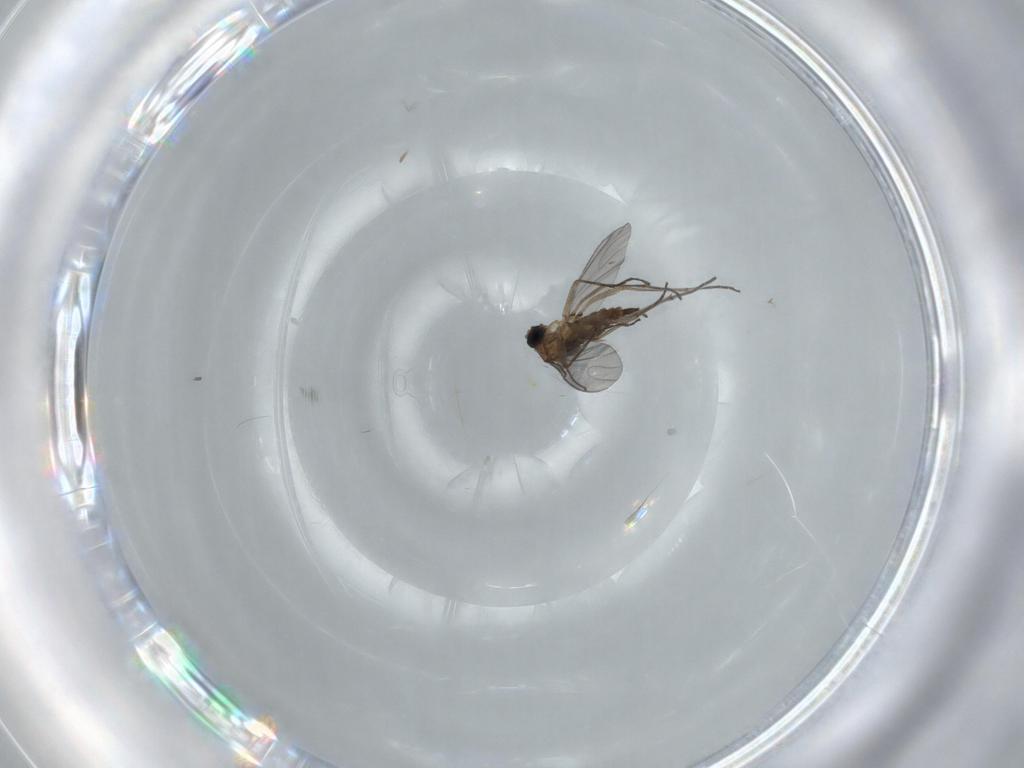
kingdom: Animalia
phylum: Arthropoda
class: Insecta
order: Diptera
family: Sciaridae
